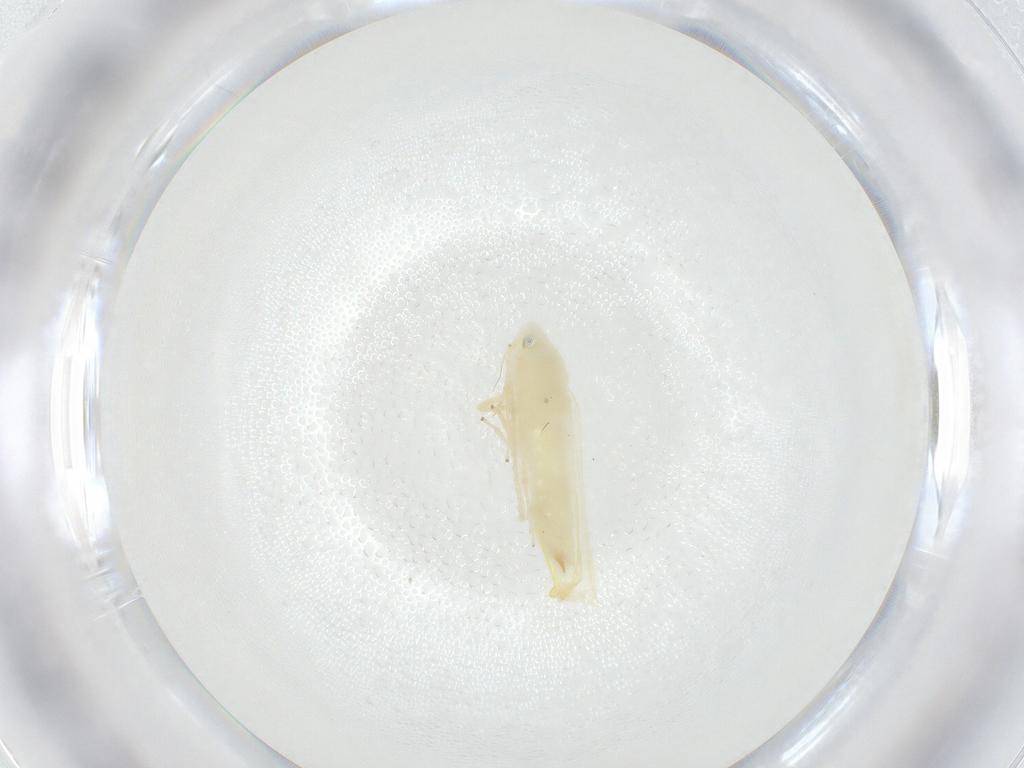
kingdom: Animalia
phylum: Arthropoda
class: Insecta
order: Hemiptera
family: Cicadellidae
